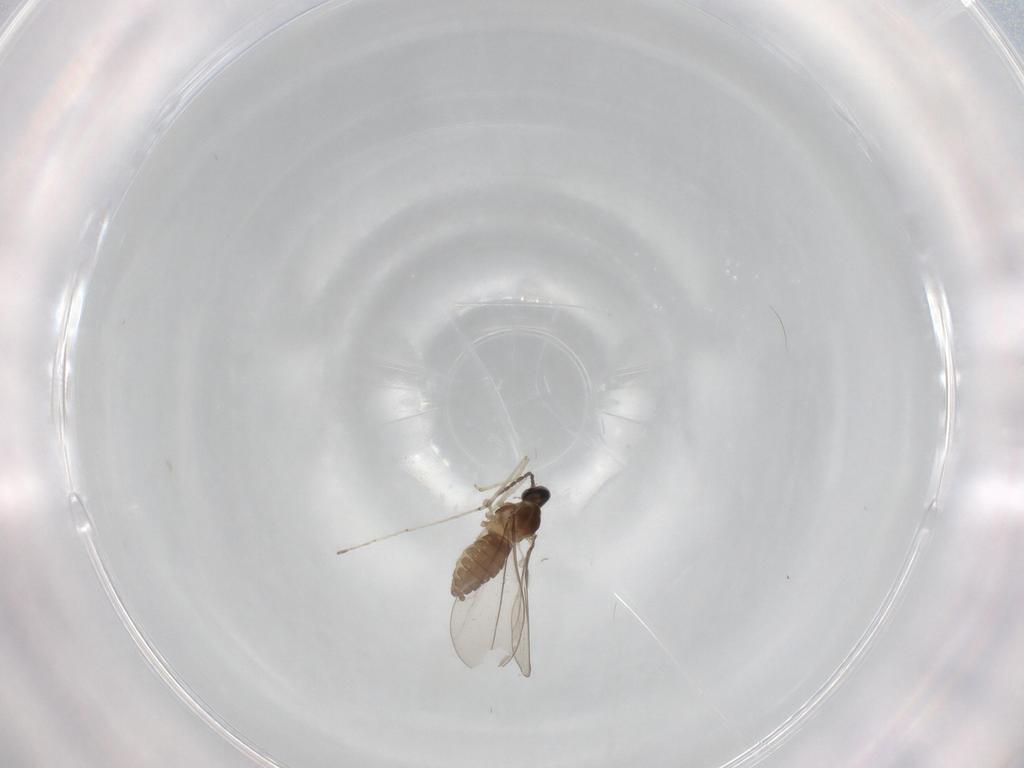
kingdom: Animalia
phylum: Arthropoda
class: Insecta
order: Diptera
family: Cecidomyiidae
